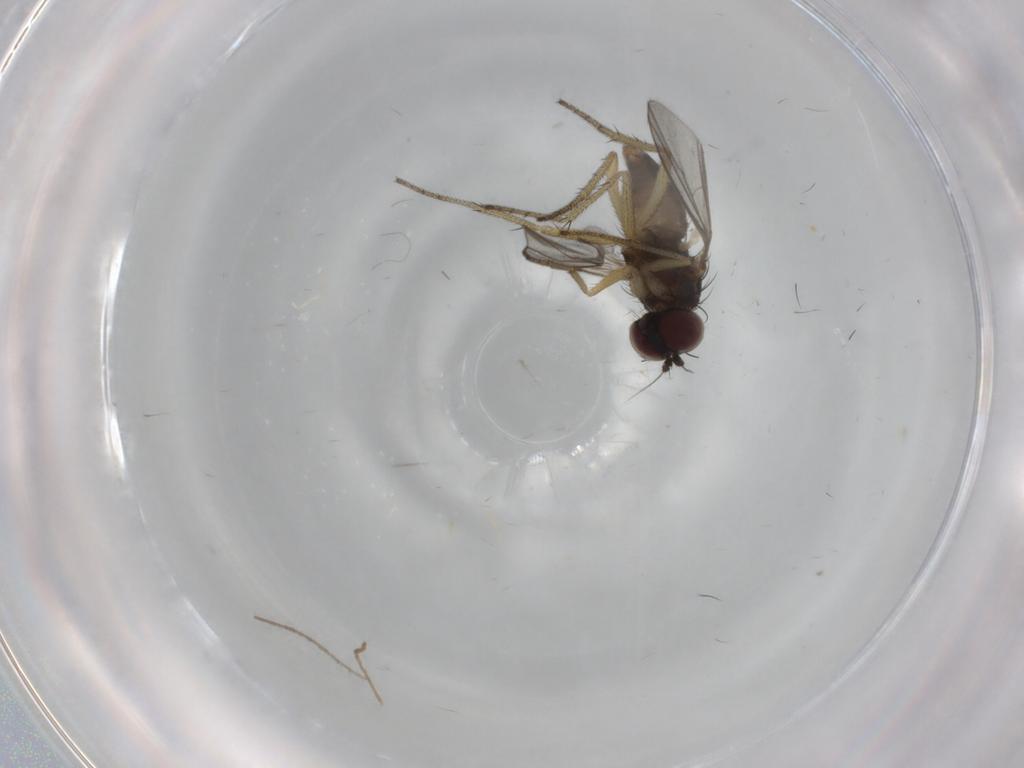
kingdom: Animalia
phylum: Arthropoda
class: Insecta
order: Diptera
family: Dolichopodidae
